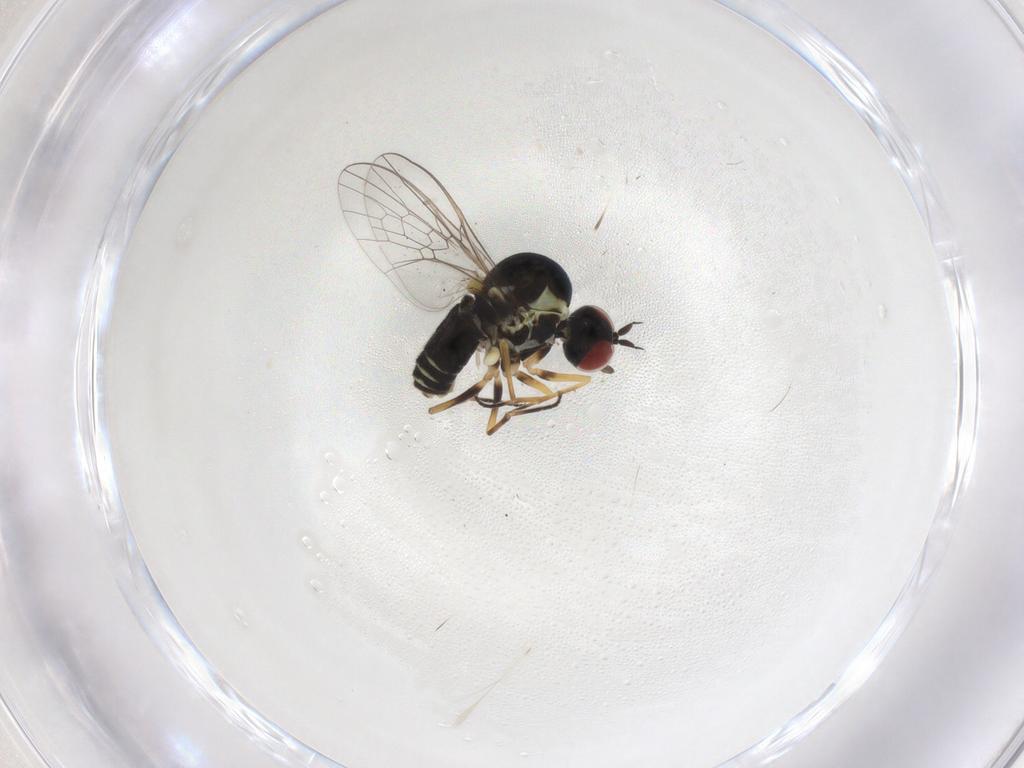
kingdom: Animalia
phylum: Arthropoda
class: Insecta
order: Diptera
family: Bombyliidae
